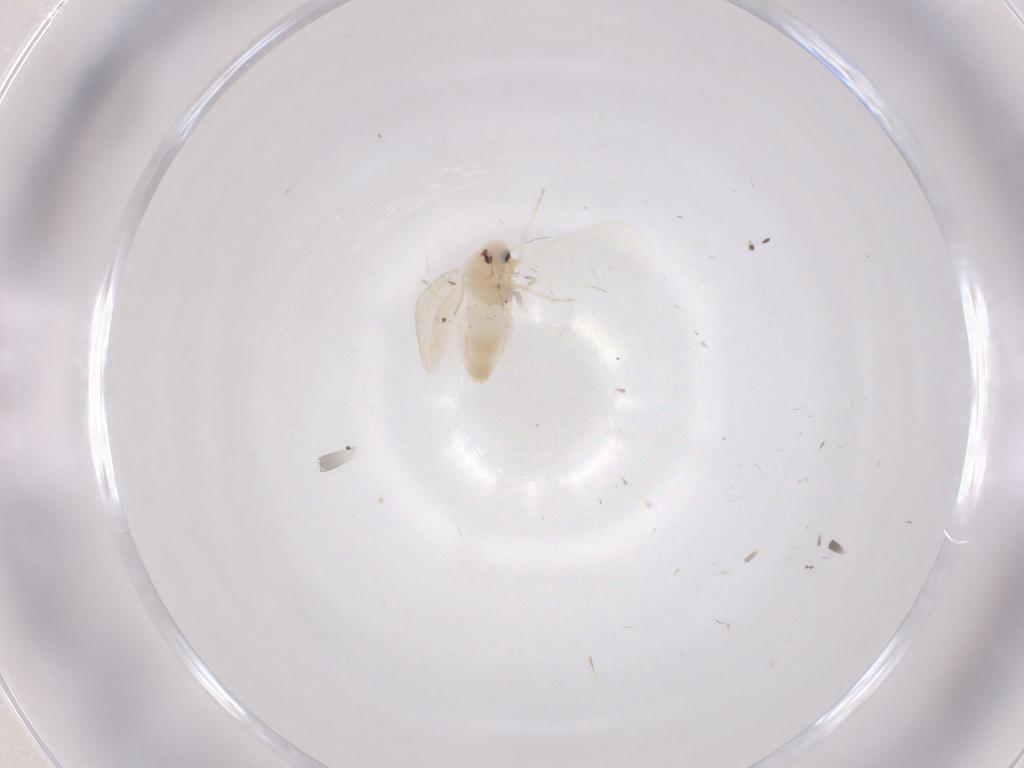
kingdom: Animalia
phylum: Arthropoda
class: Insecta
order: Hemiptera
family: Aleyrodidae
